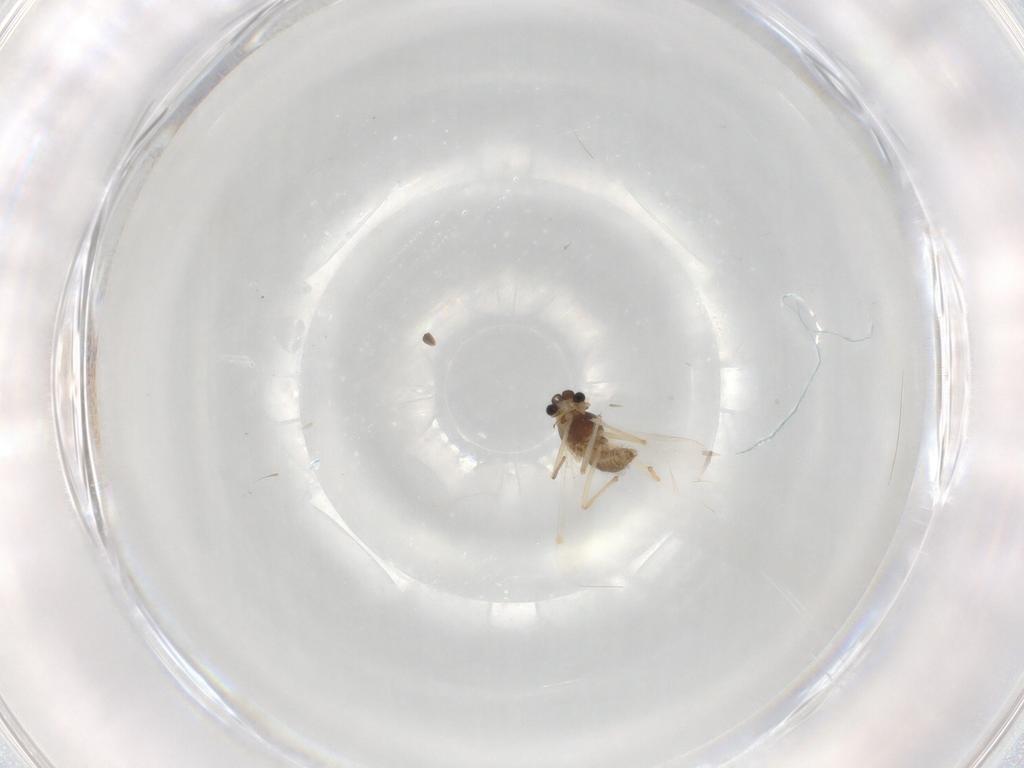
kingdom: Animalia
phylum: Arthropoda
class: Insecta
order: Diptera
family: Chironomidae
